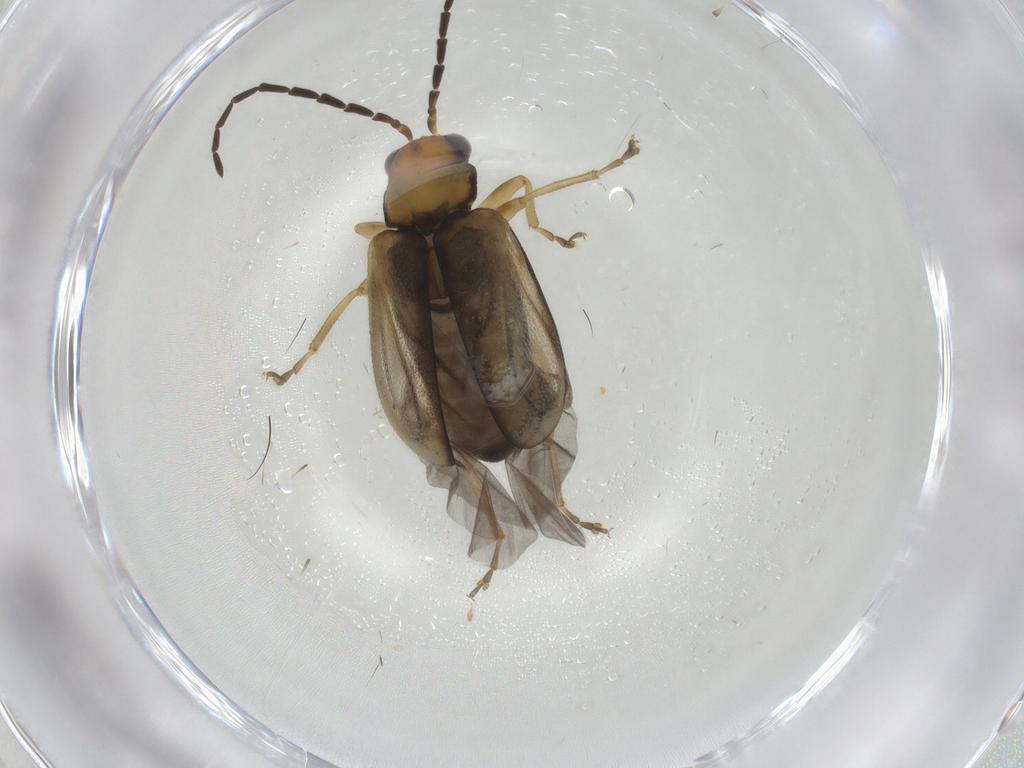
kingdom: Animalia
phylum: Arthropoda
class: Insecta
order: Coleoptera
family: Chrysomelidae
